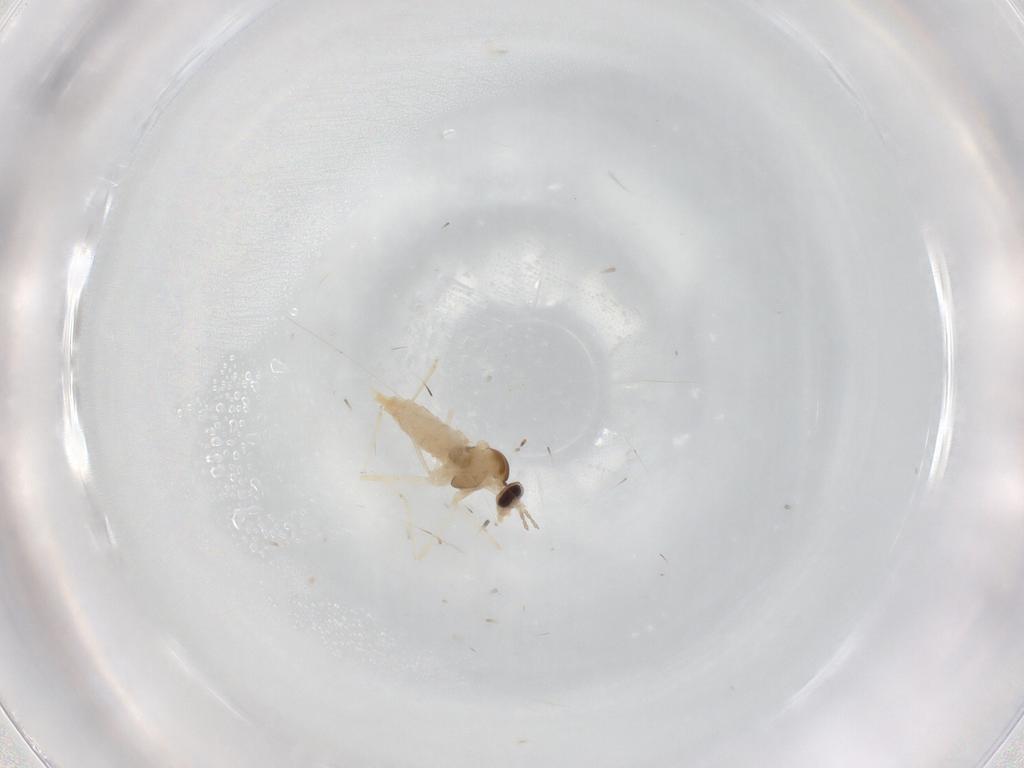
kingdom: Animalia
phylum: Arthropoda
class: Insecta
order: Diptera
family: Cecidomyiidae
